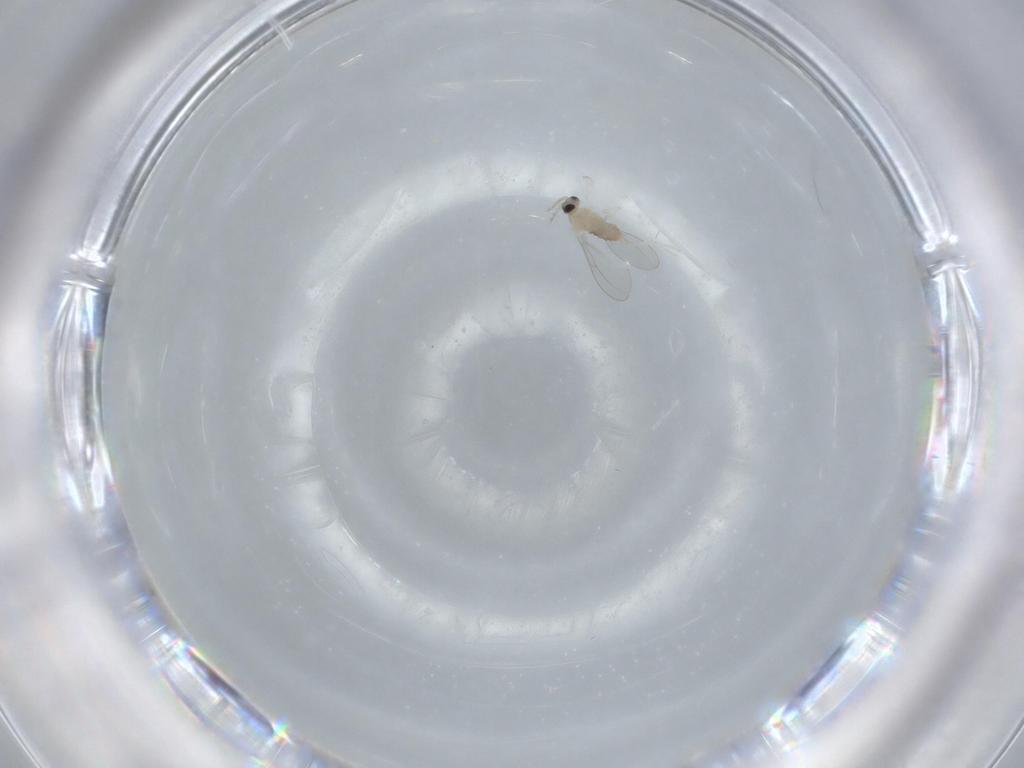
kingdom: Animalia
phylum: Arthropoda
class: Insecta
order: Diptera
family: Cecidomyiidae
